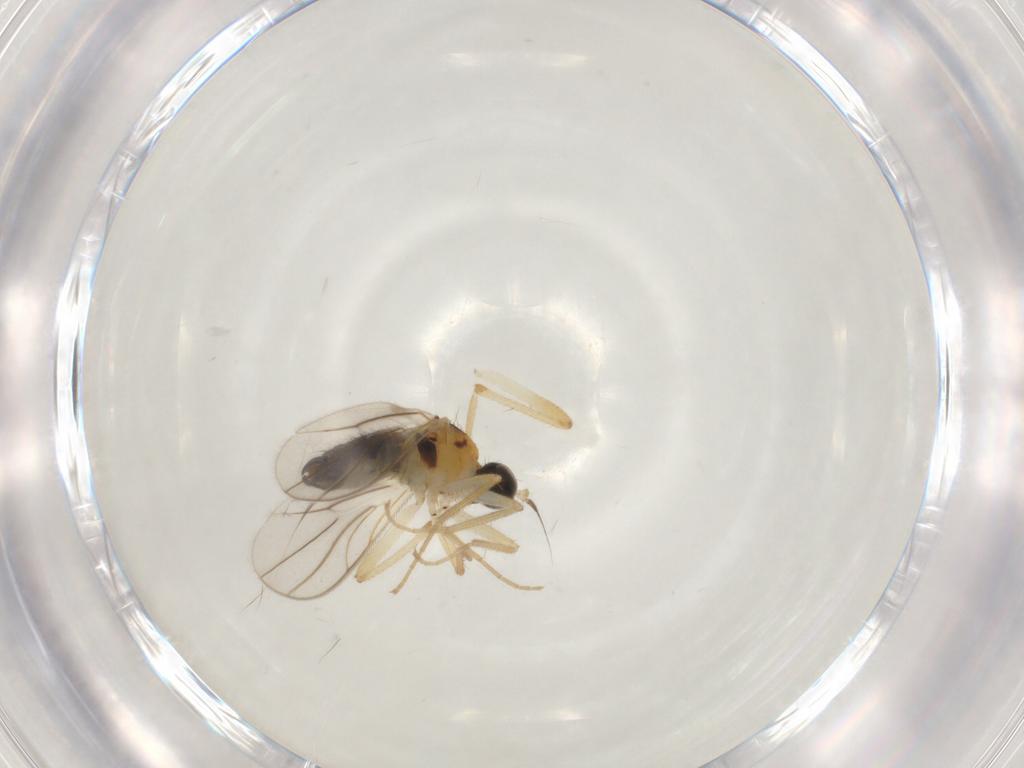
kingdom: Animalia
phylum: Arthropoda
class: Insecta
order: Diptera
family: Hybotidae
